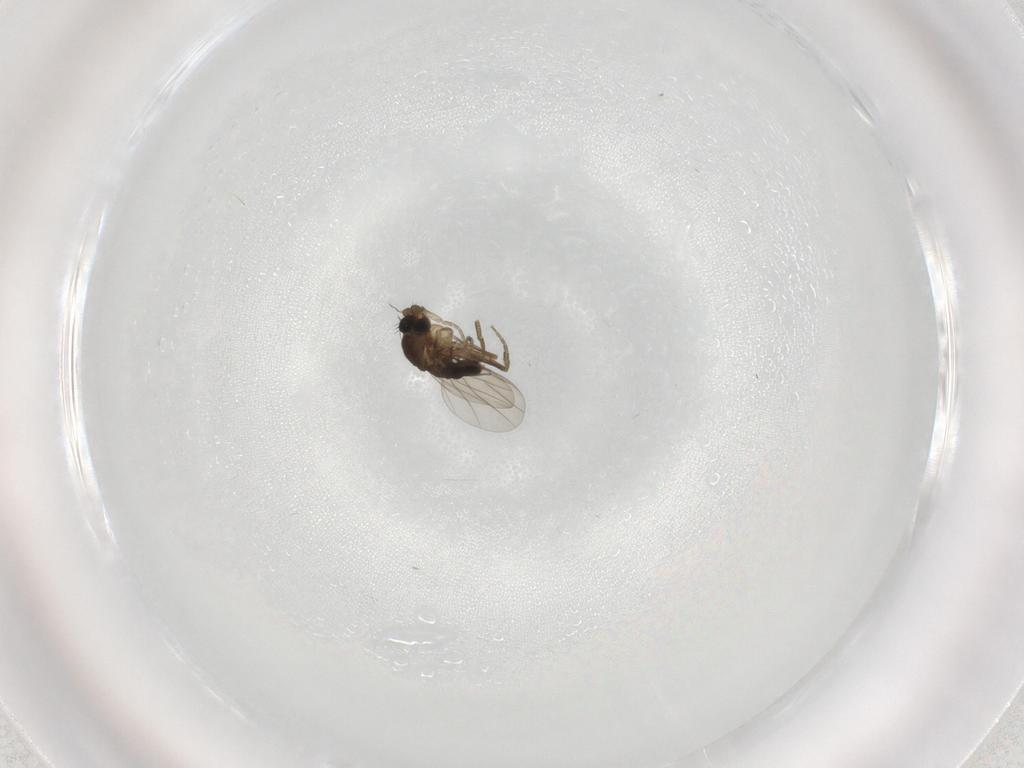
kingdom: Animalia
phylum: Arthropoda
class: Insecta
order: Diptera
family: Phoridae
